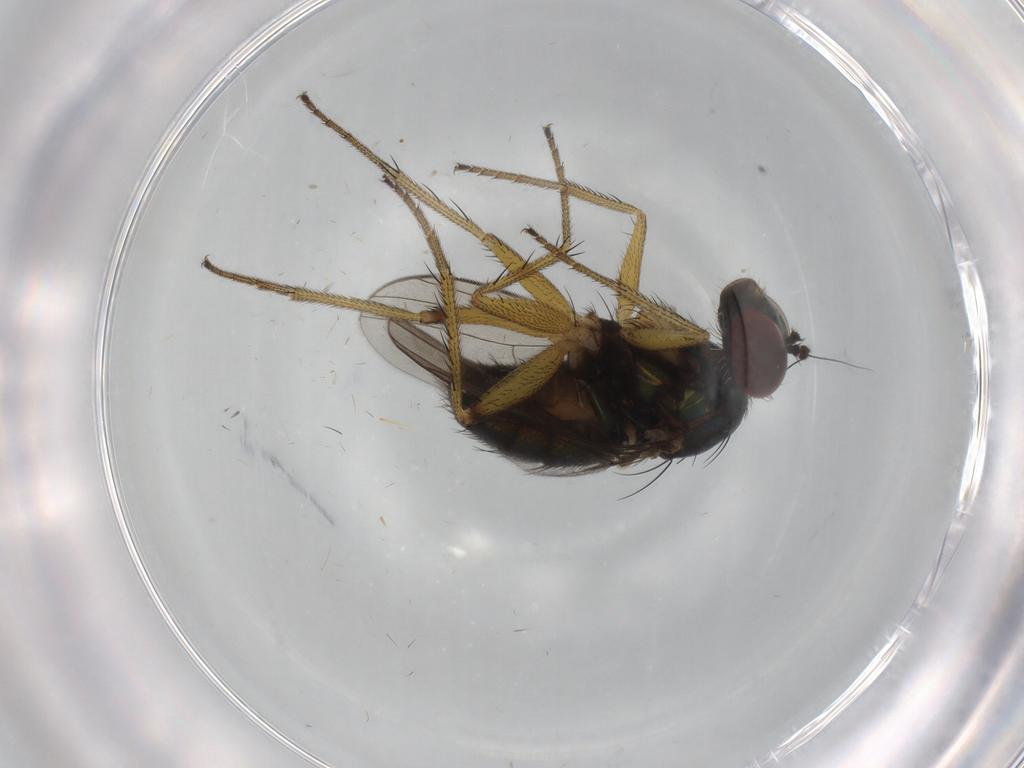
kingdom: Animalia
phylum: Arthropoda
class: Insecta
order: Diptera
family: Dolichopodidae
